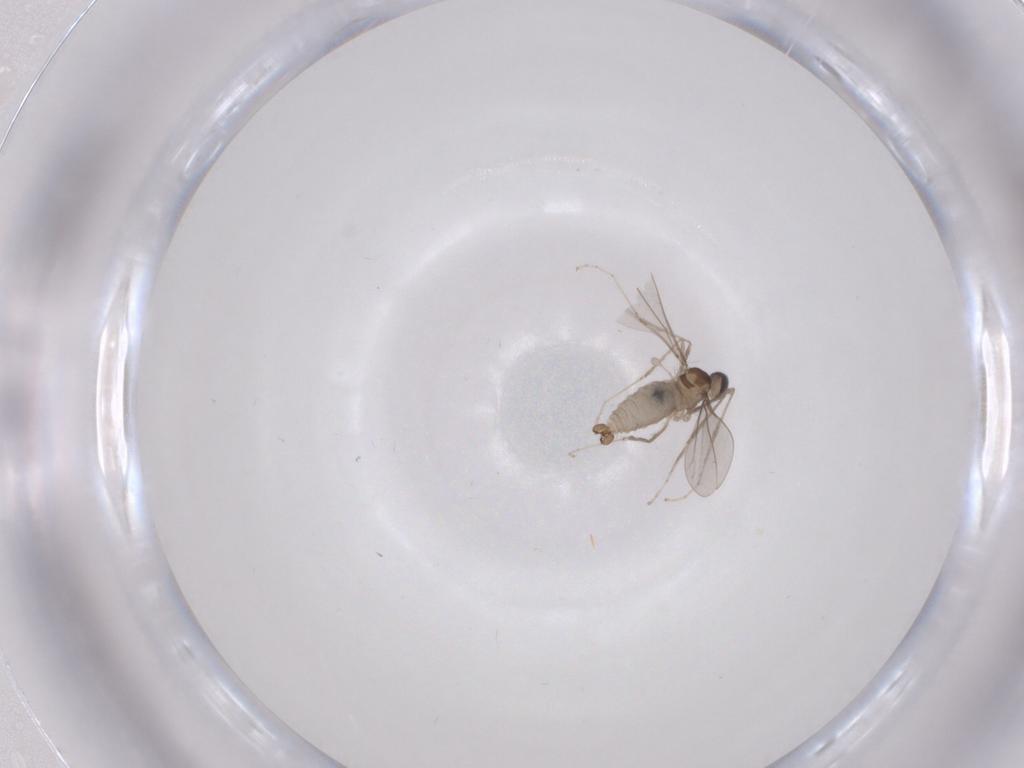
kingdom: Animalia
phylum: Arthropoda
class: Insecta
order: Diptera
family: Cecidomyiidae
